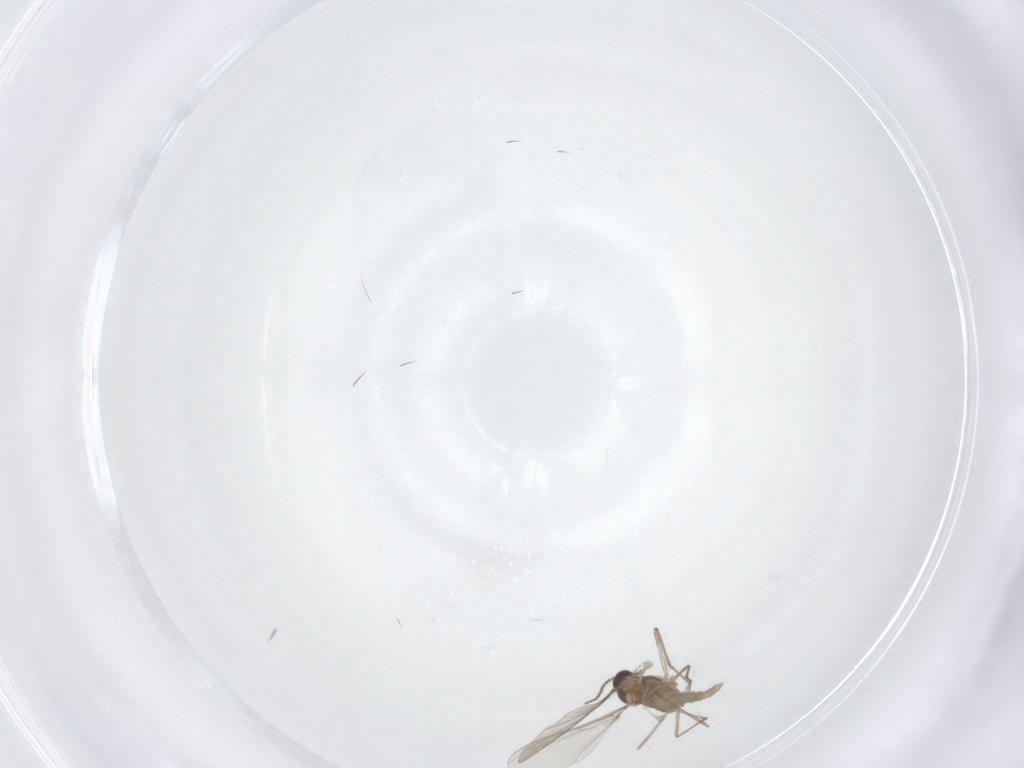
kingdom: Animalia
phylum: Arthropoda
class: Insecta
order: Diptera
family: Cecidomyiidae
